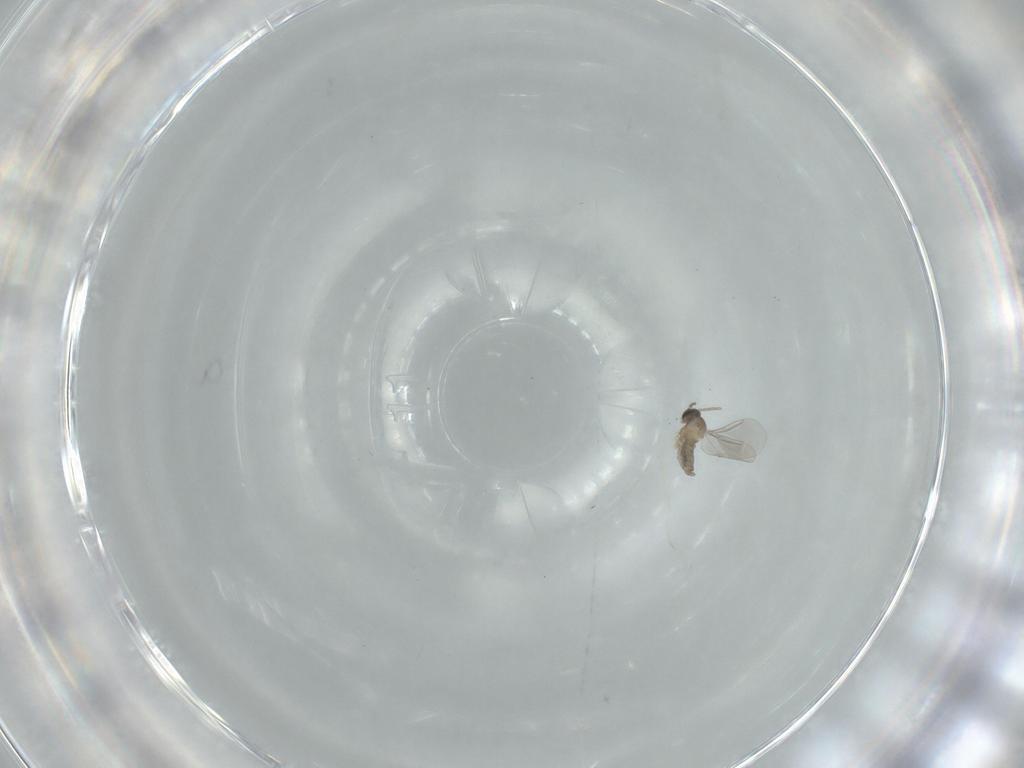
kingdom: Animalia
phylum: Arthropoda
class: Insecta
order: Diptera
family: Cecidomyiidae
